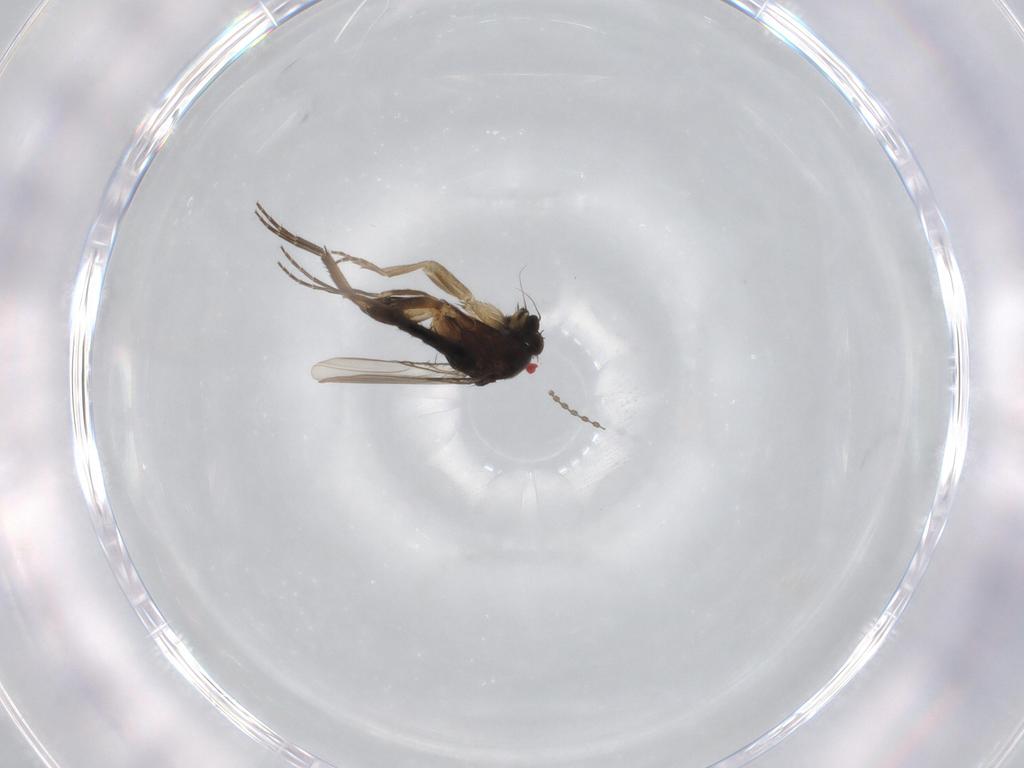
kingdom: Animalia
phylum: Arthropoda
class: Insecta
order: Diptera
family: Phoridae
